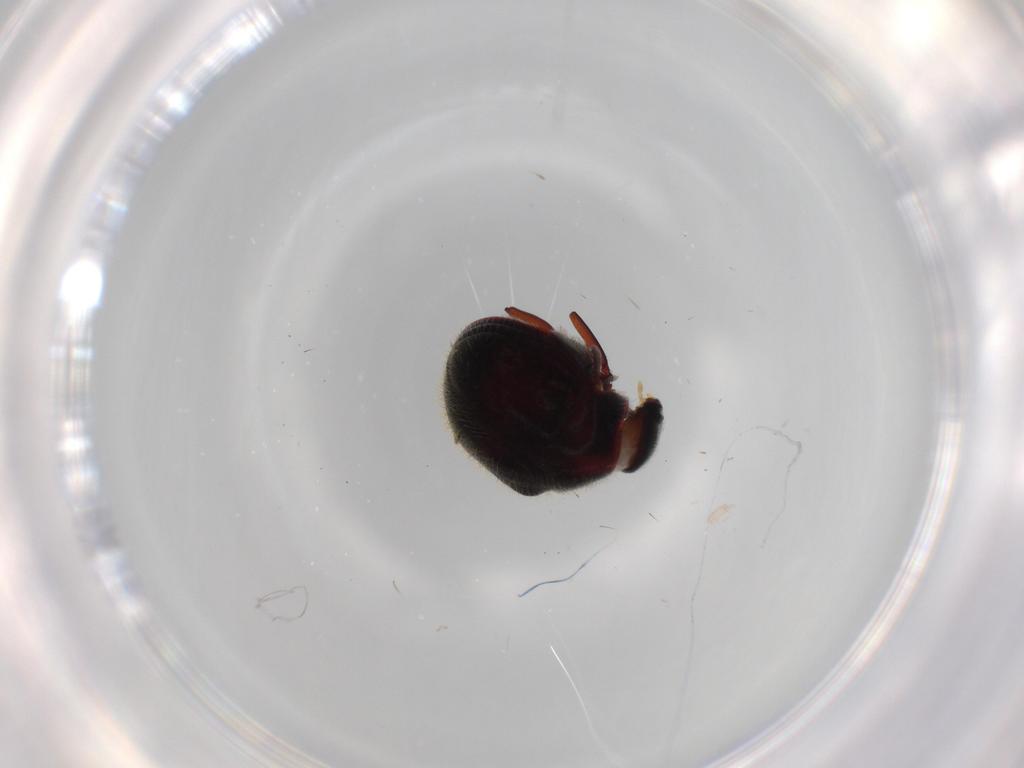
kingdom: Animalia
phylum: Arthropoda
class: Insecta
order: Coleoptera
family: Ptinidae
